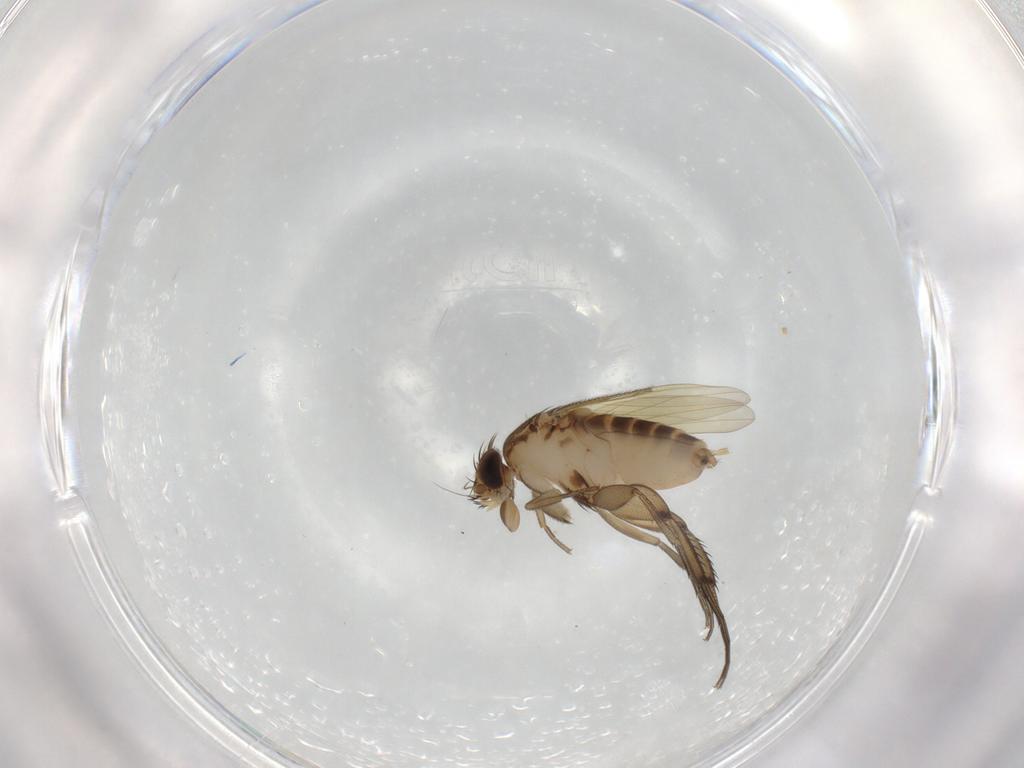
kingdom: Animalia
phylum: Arthropoda
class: Insecta
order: Diptera
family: Phoridae
